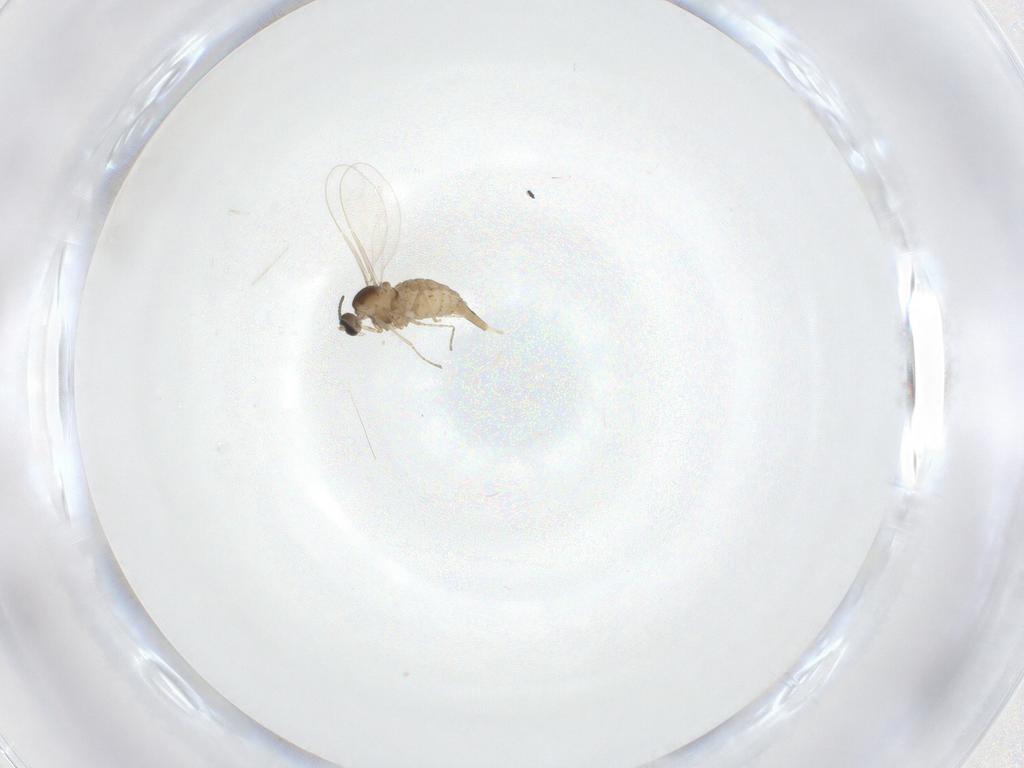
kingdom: Animalia
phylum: Arthropoda
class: Insecta
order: Diptera
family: Cecidomyiidae
